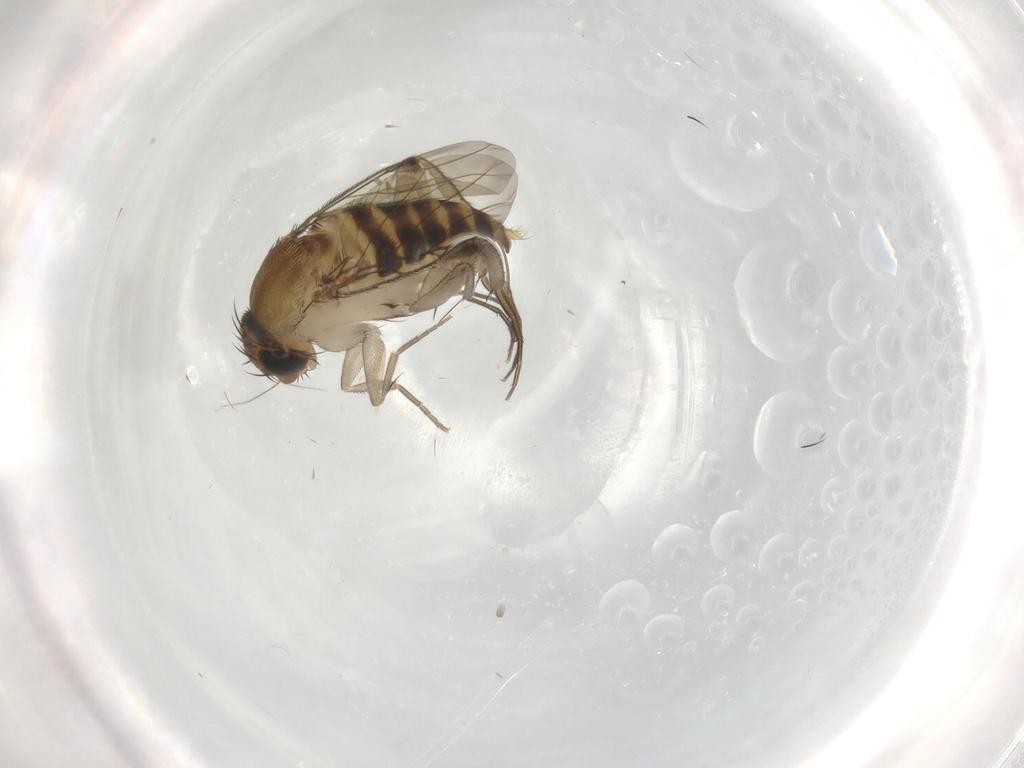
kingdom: Animalia
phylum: Arthropoda
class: Insecta
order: Diptera
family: Phoridae
